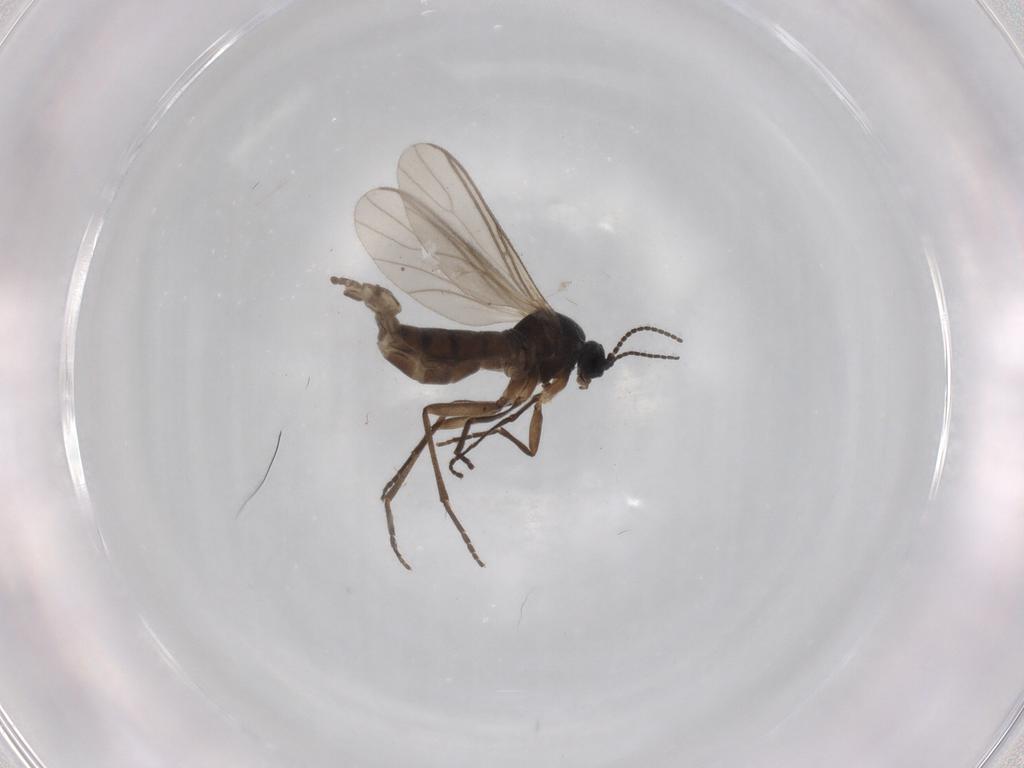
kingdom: Animalia
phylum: Arthropoda
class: Insecta
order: Diptera
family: Sciaridae
